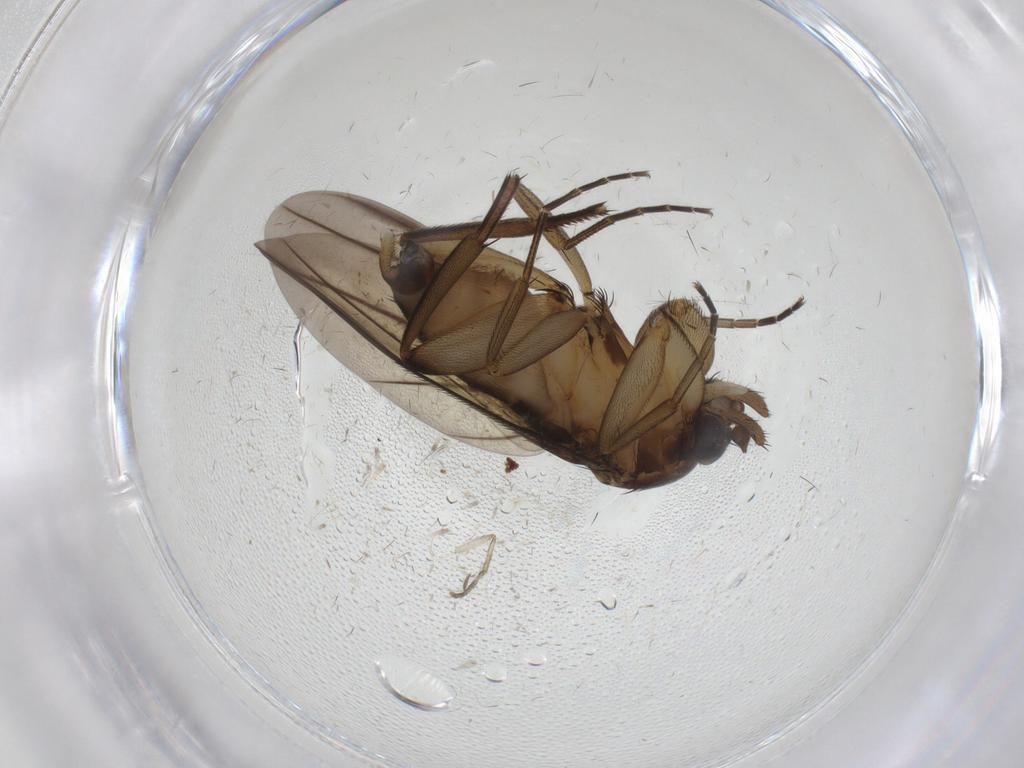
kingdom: Animalia
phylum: Arthropoda
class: Insecta
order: Diptera
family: Phoridae
